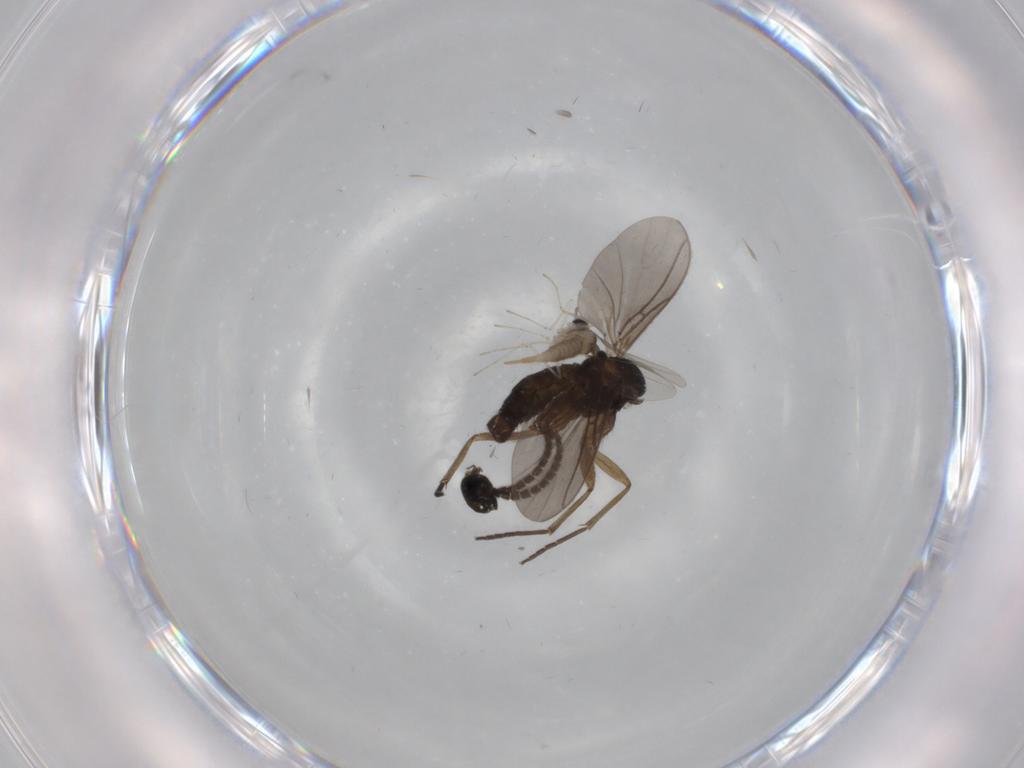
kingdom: Animalia
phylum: Arthropoda
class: Insecta
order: Diptera
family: Sciaridae
